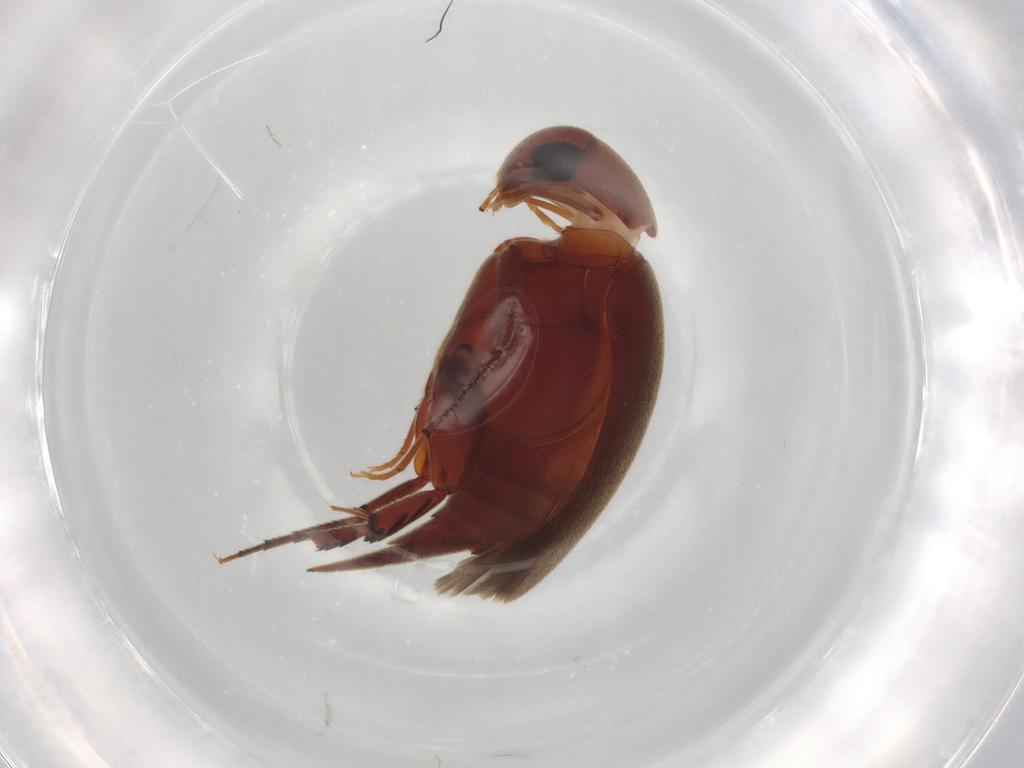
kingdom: Animalia
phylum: Arthropoda
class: Insecta
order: Coleoptera
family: Mordellidae
